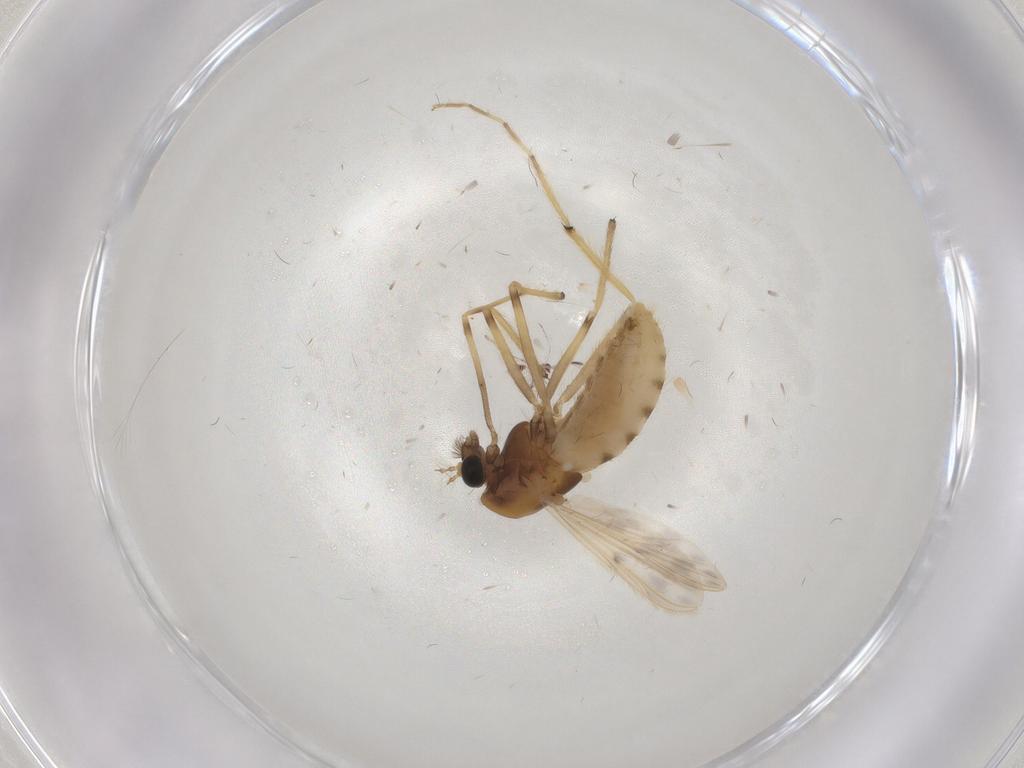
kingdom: Animalia
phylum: Arthropoda
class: Insecta
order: Diptera
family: Chironomidae
